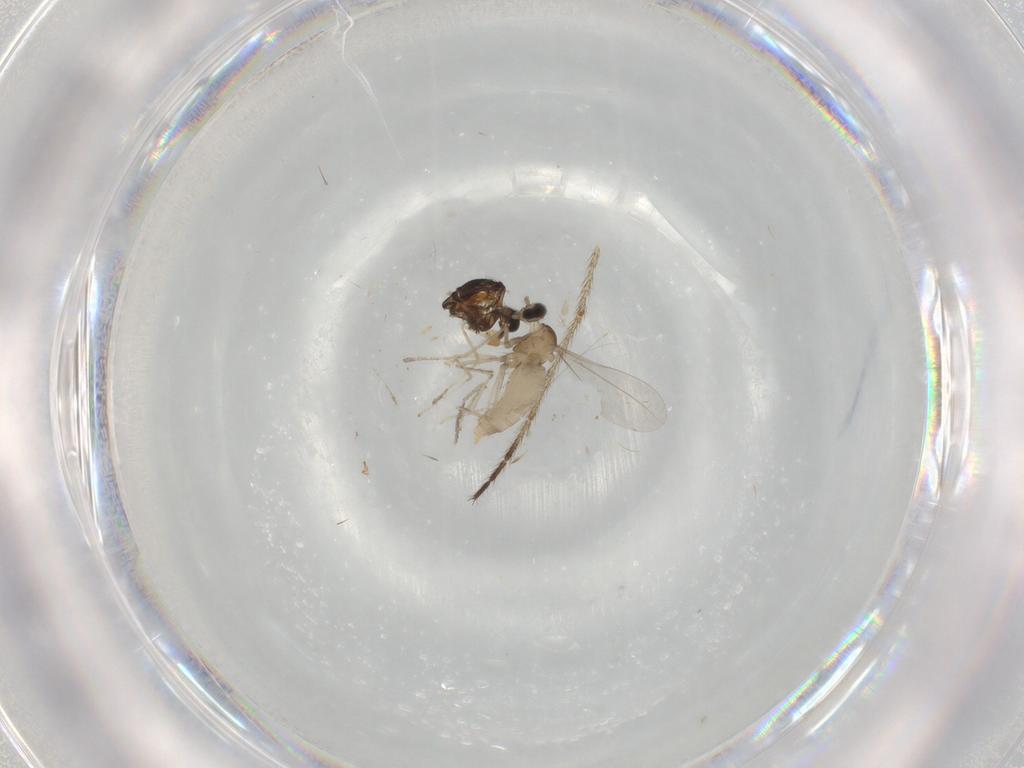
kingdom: Animalia
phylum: Arthropoda
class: Insecta
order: Diptera
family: Cecidomyiidae
